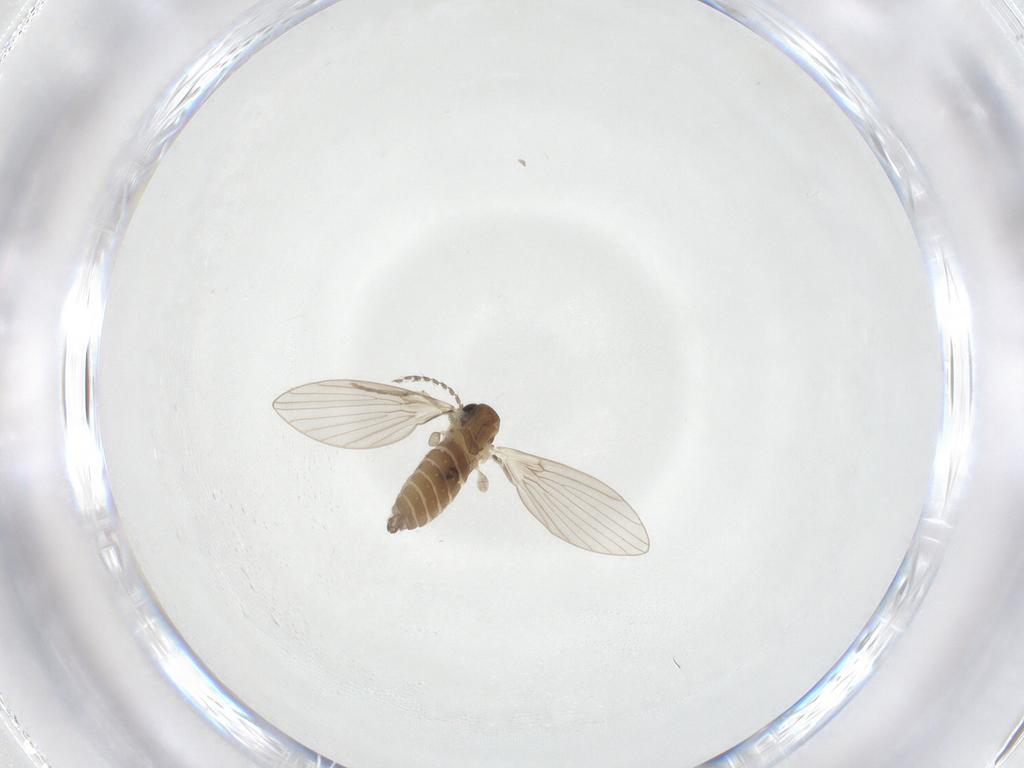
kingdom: Animalia
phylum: Arthropoda
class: Insecta
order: Diptera
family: Limoniidae
